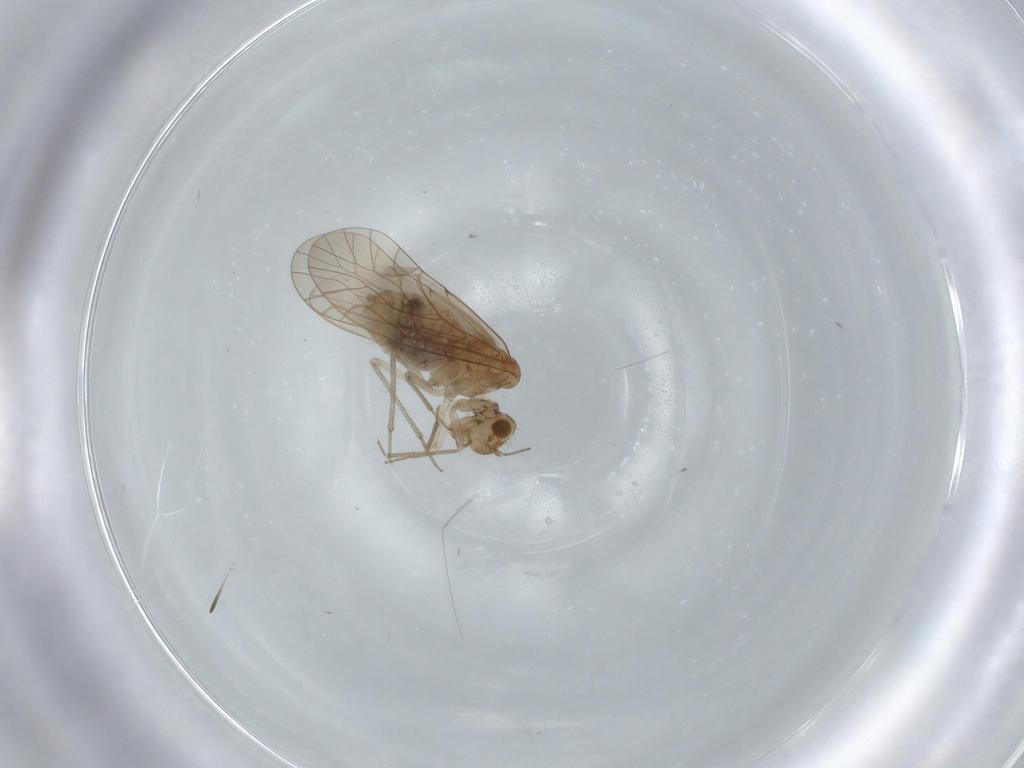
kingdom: Animalia
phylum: Arthropoda
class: Insecta
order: Psocodea
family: Lachesillidae
